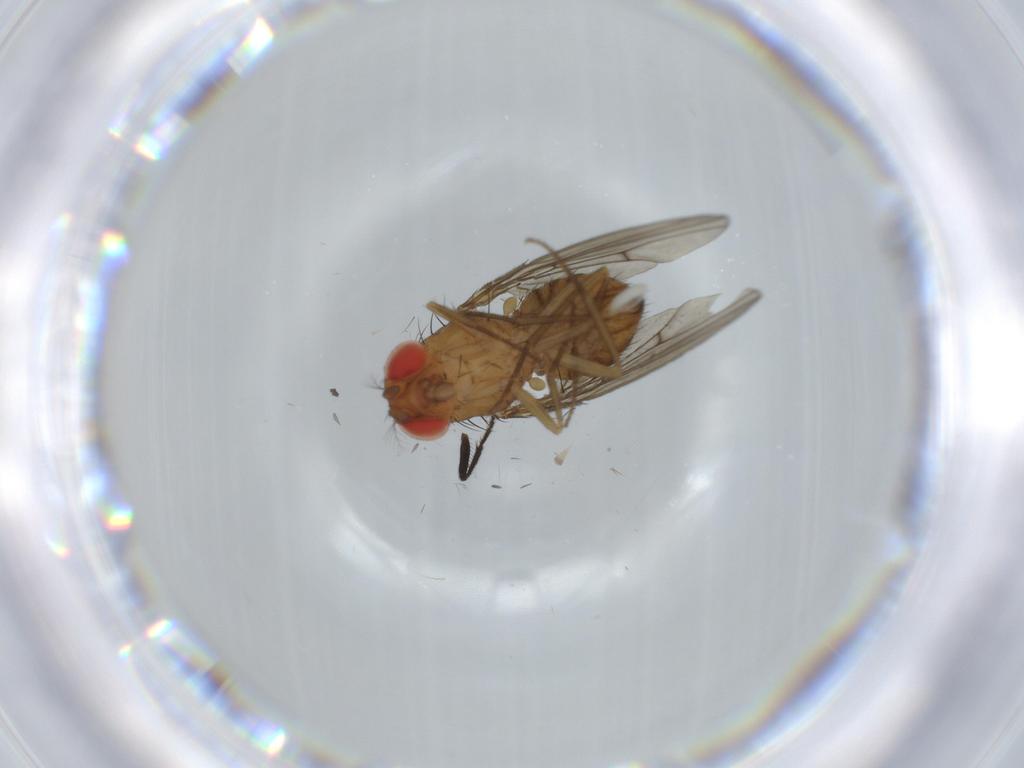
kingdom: Animalia
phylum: Arthropoda
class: Insecta
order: Diptera
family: Drosophilidae
